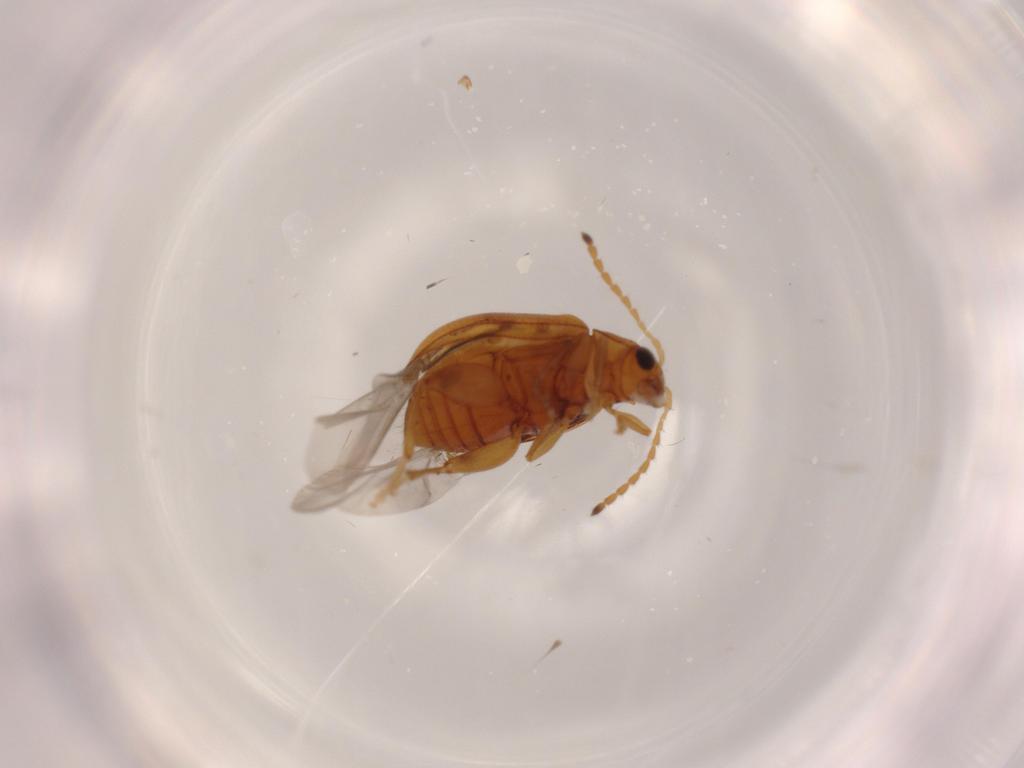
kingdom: Animalia
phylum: Arthropoda
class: Insecta
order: Coleoptera
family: Chrysomelidae
